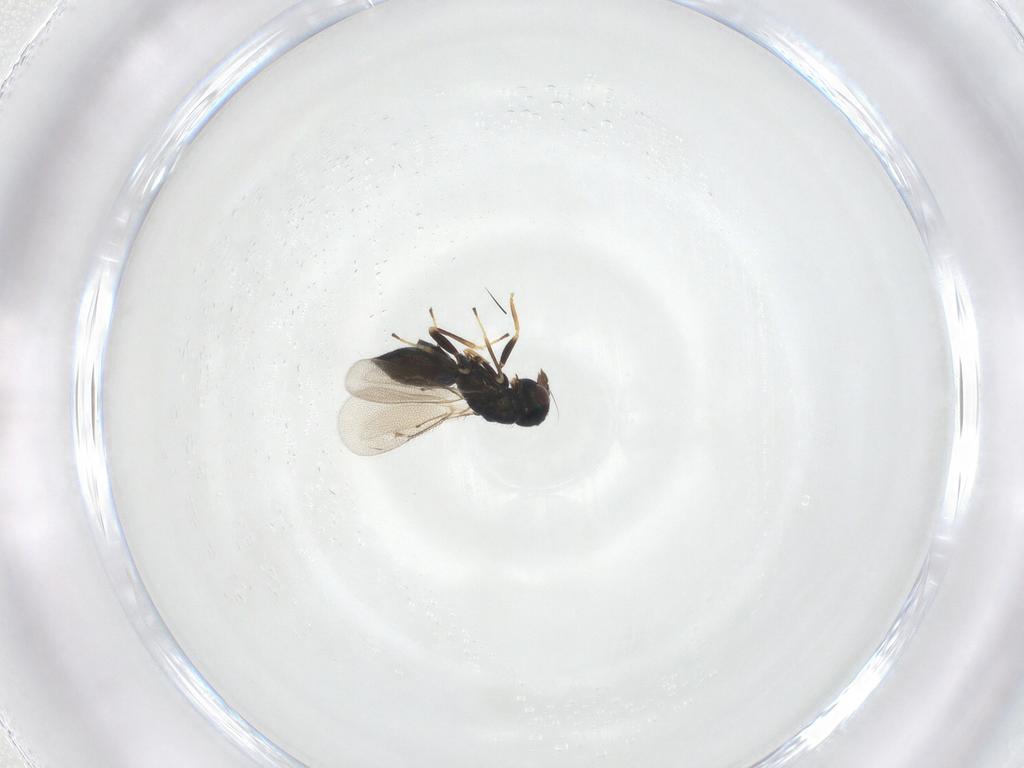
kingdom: Animalia
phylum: Arthropoda
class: Insecta
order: Hymenoptera
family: Eulophidae
